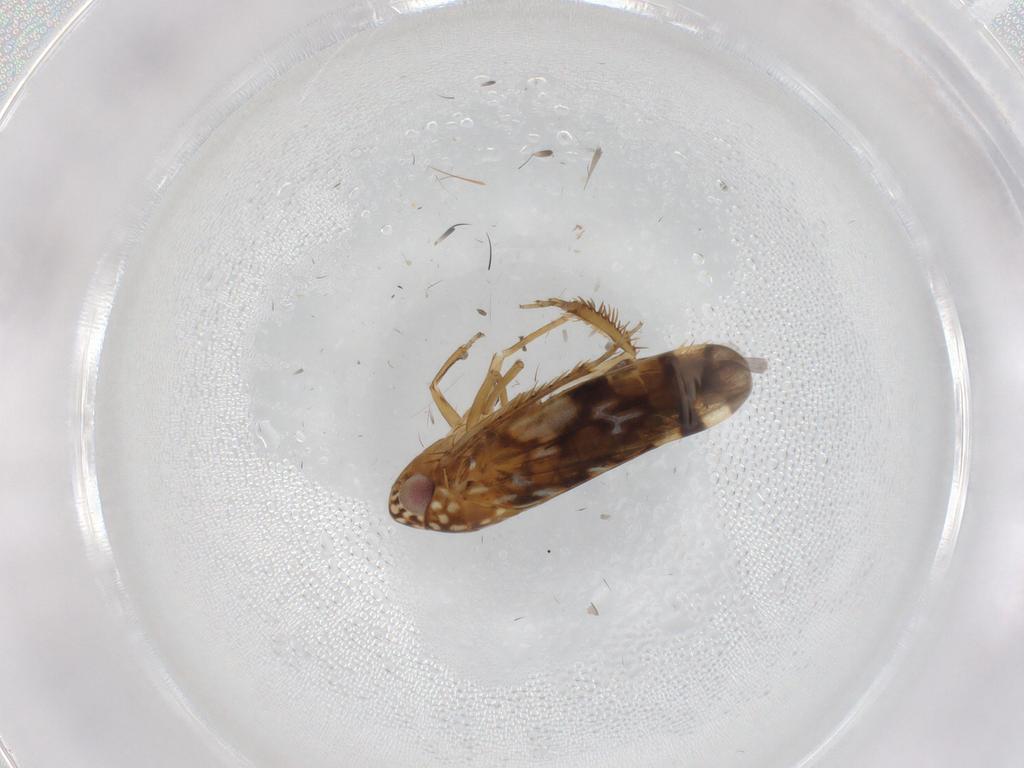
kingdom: Animalia
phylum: Arthropoda
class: Insecta
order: Hemiptera
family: Cicadellidae
